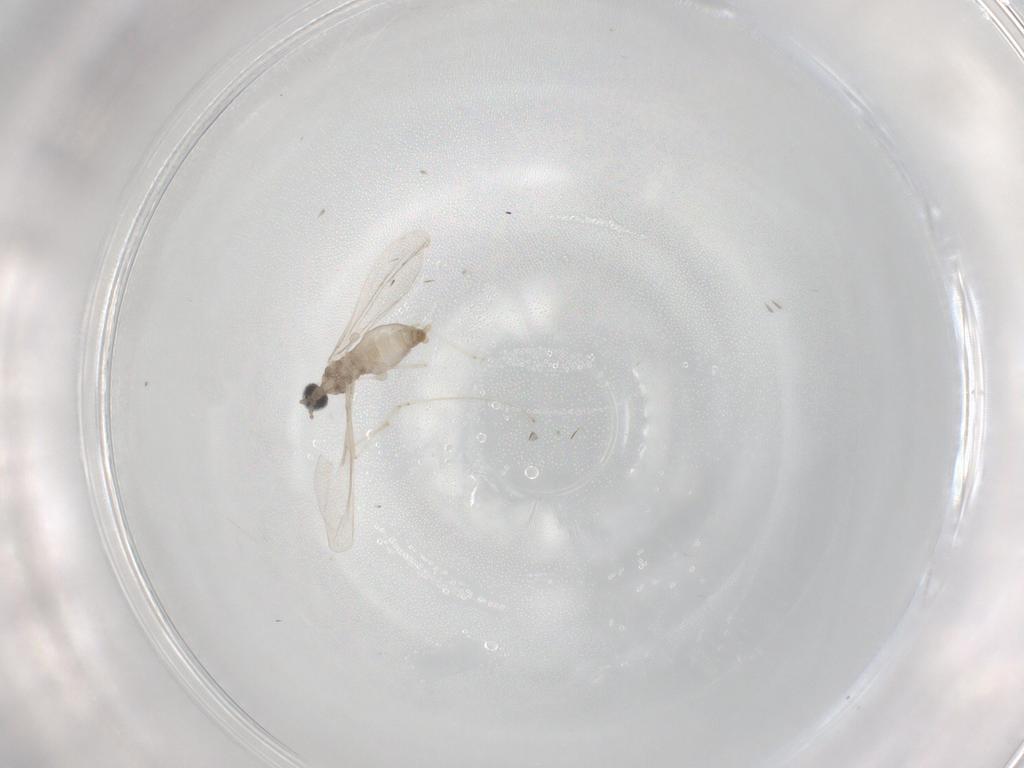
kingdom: Animalia
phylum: Arthropoda
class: Insecta
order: Diptera
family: Cecidomyiidae
